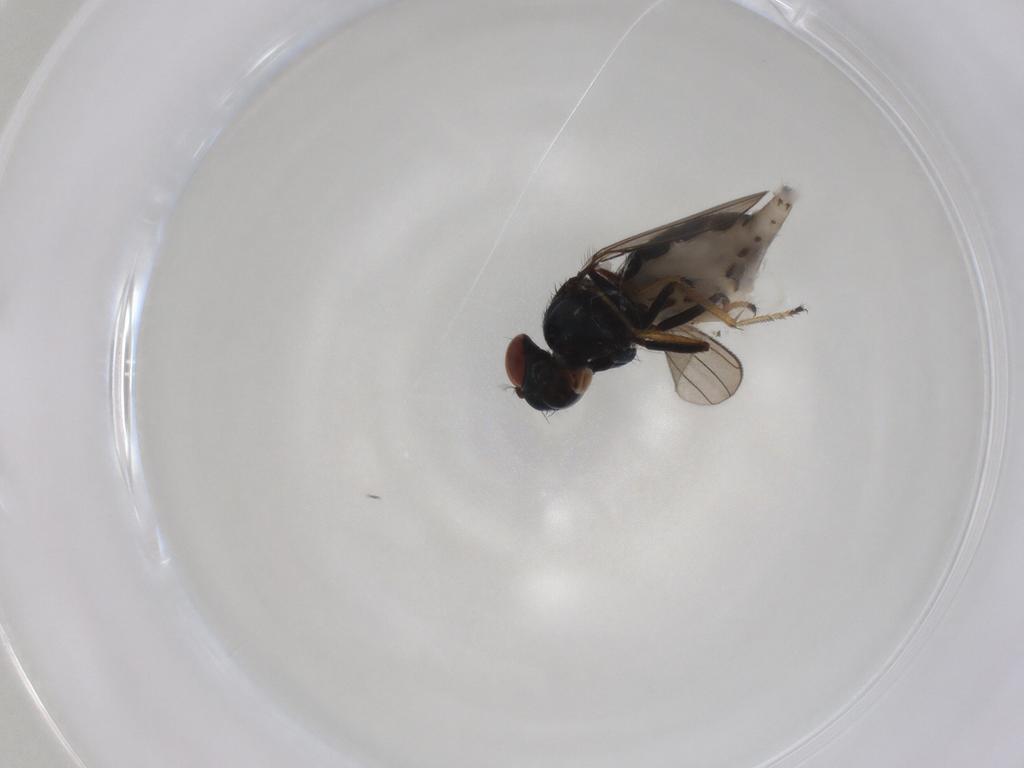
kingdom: Animalia
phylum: Arthropoda
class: Insecta
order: Diptera
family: Ephydridae
